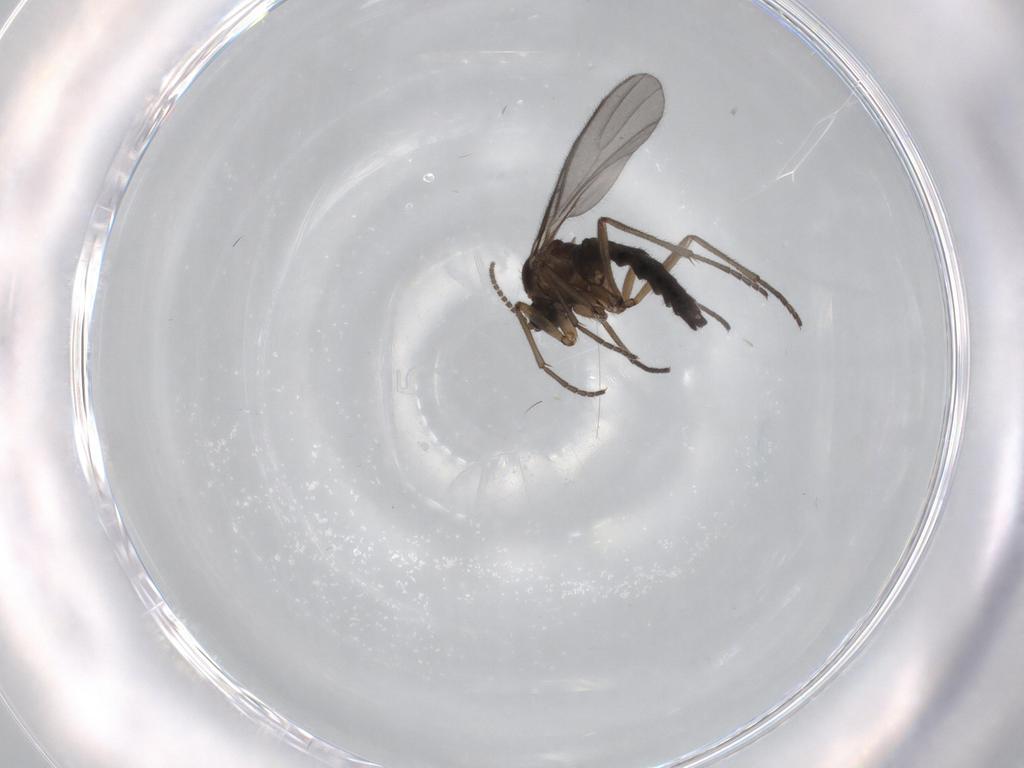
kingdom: Animalia
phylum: Arthropoda
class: Insecta
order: Diptera
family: Sciaridae
